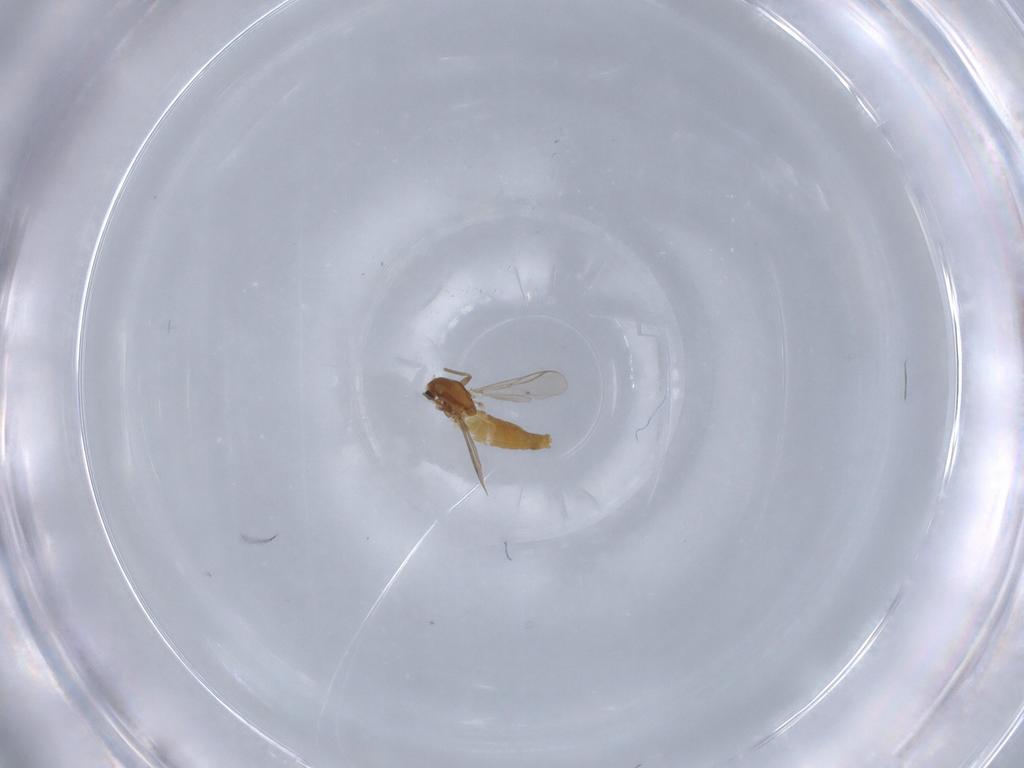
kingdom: Animalia
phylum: Arthropoda
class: Insecta
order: Diptera
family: Chironomidae
